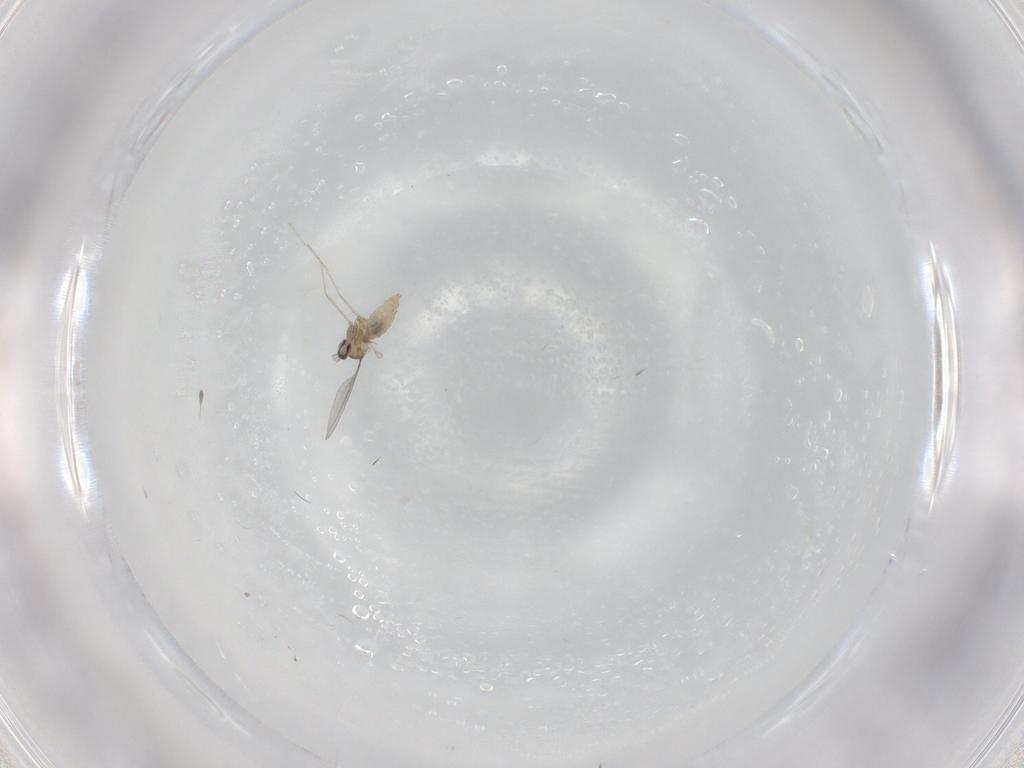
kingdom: Animalia
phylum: Arthropoda
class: Insecta
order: Diptera
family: Cecidomyiidae
